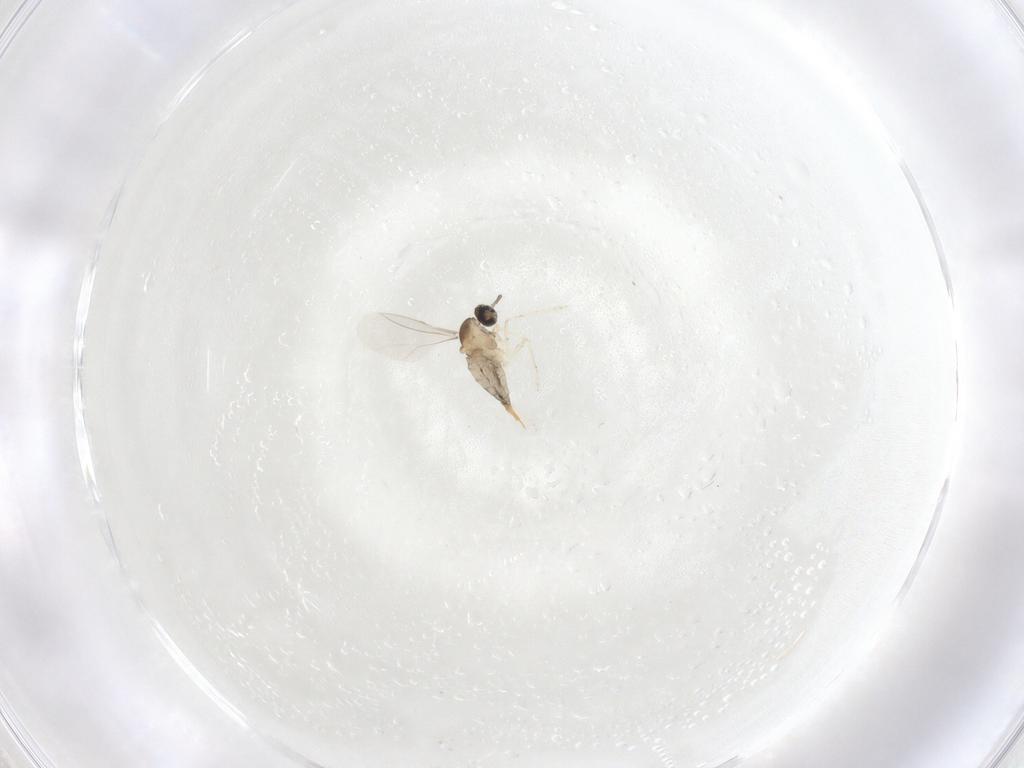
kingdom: Animalia
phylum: Arthropoda
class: Insecta
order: Diptera
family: Cecidomyiidae
